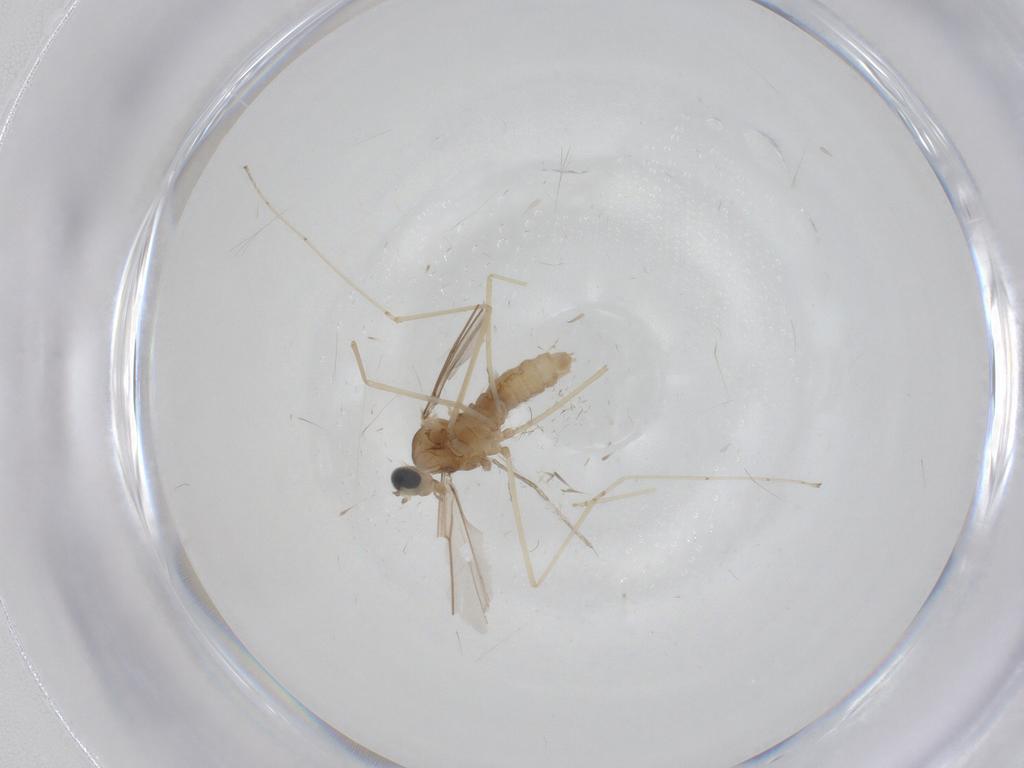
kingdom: Animalia
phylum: Arthropoda
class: Insecta
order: Diptera
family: Cecidomyiidae
